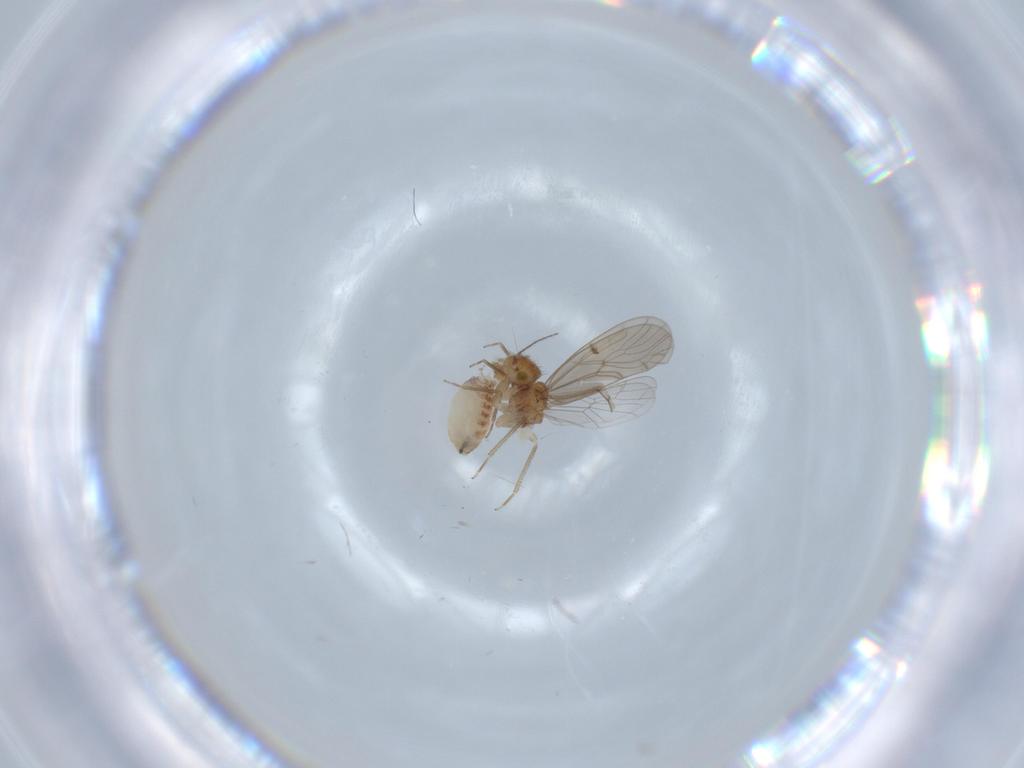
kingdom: Animalia
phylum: Arthropoda
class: Insecta
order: Psocodea
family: Ectopsocidae
